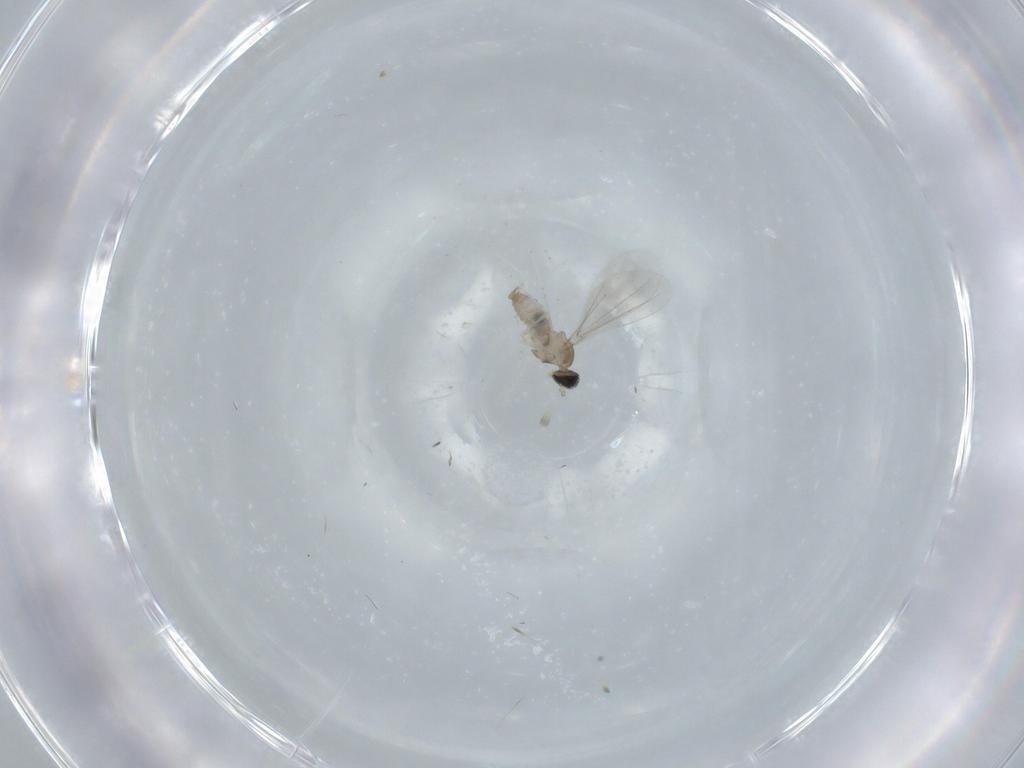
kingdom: Animalia
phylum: Arthropoda
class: Insecta
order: Diptera
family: Cecidomyiidae
